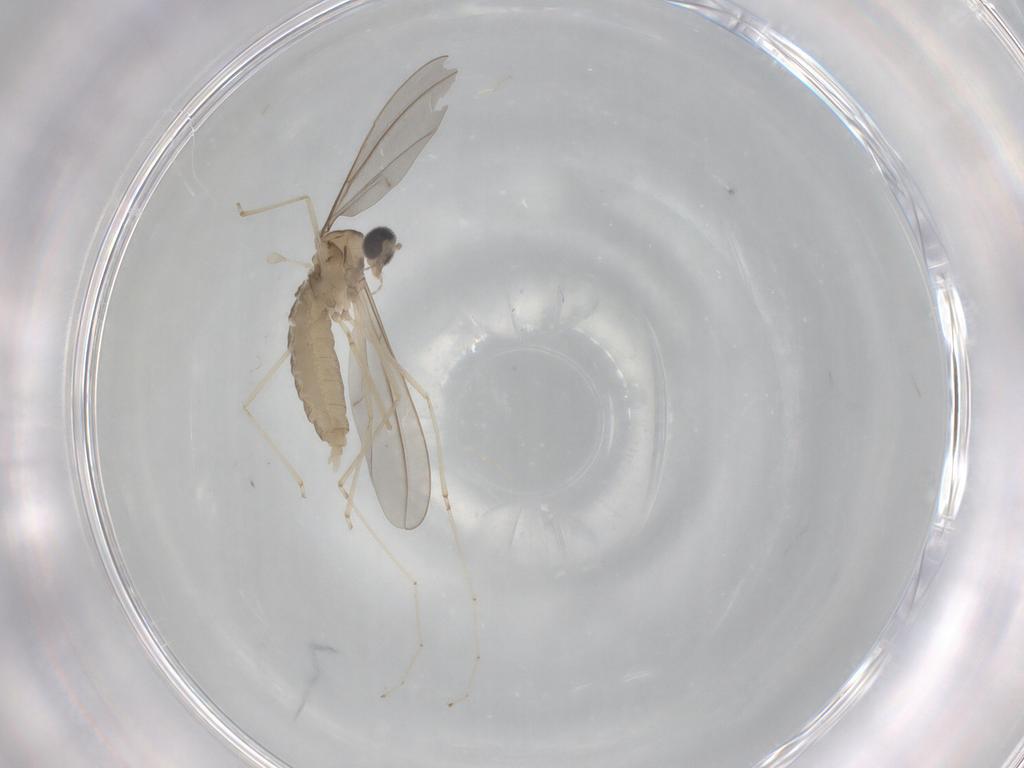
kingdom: Animalia
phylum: Arthropoda
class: Insecta
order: Diptera
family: Cecidomyiidae
